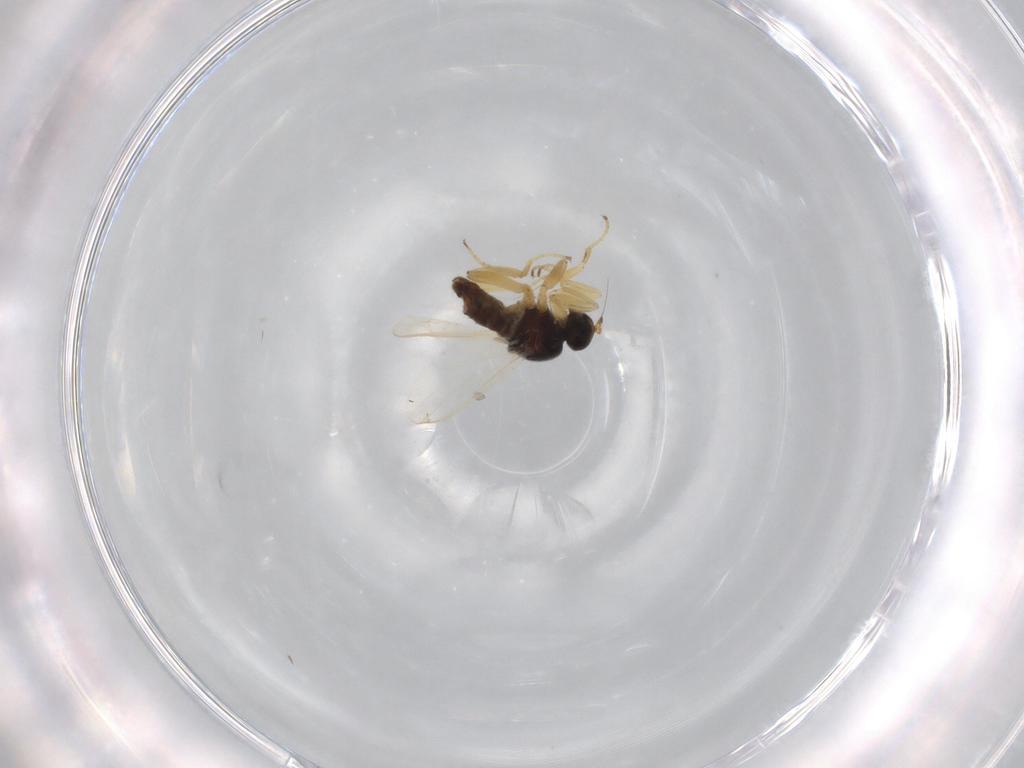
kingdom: Animalia
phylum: Arthropoda
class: Insecta
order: Diptera
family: Hybotidae
